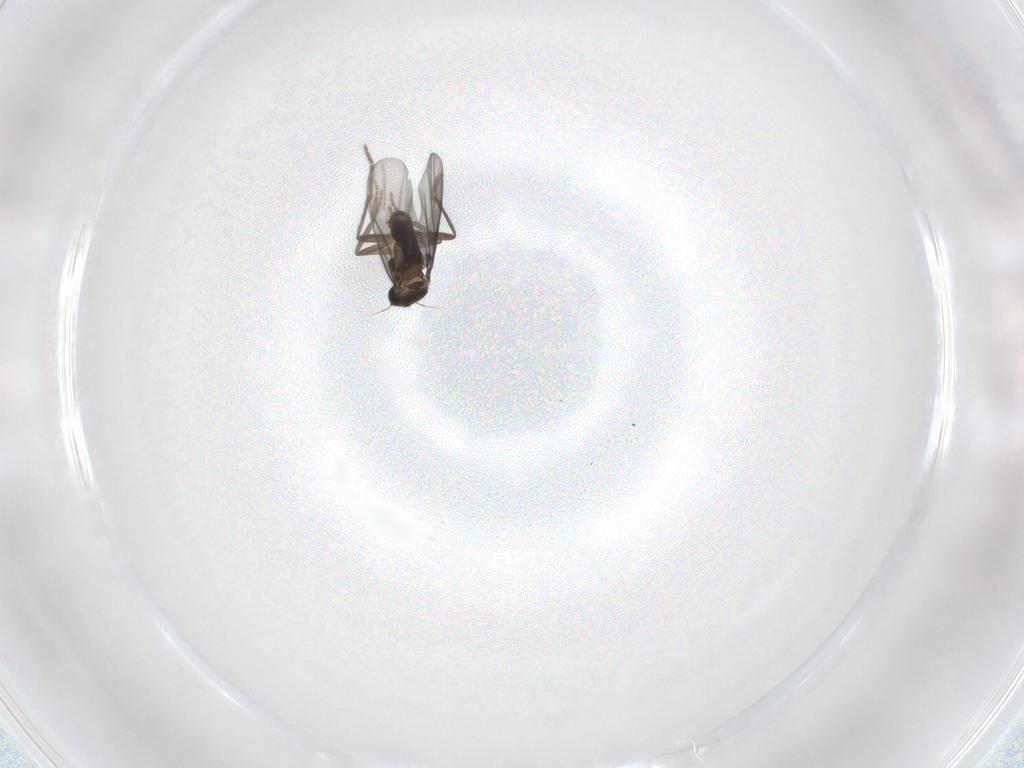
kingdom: Animalia
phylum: Arthropoda
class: Insecta
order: Diptera
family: Phoridae
